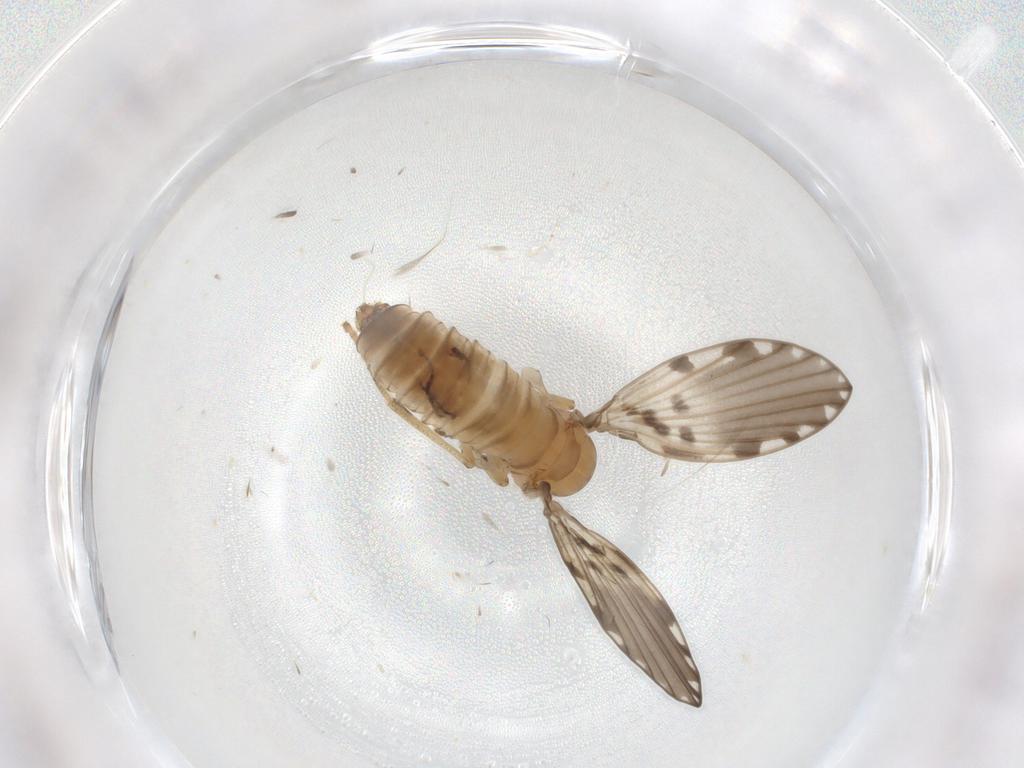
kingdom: Animalia
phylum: Arthropoda
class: Insecta
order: Diptera
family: Psychodidae
